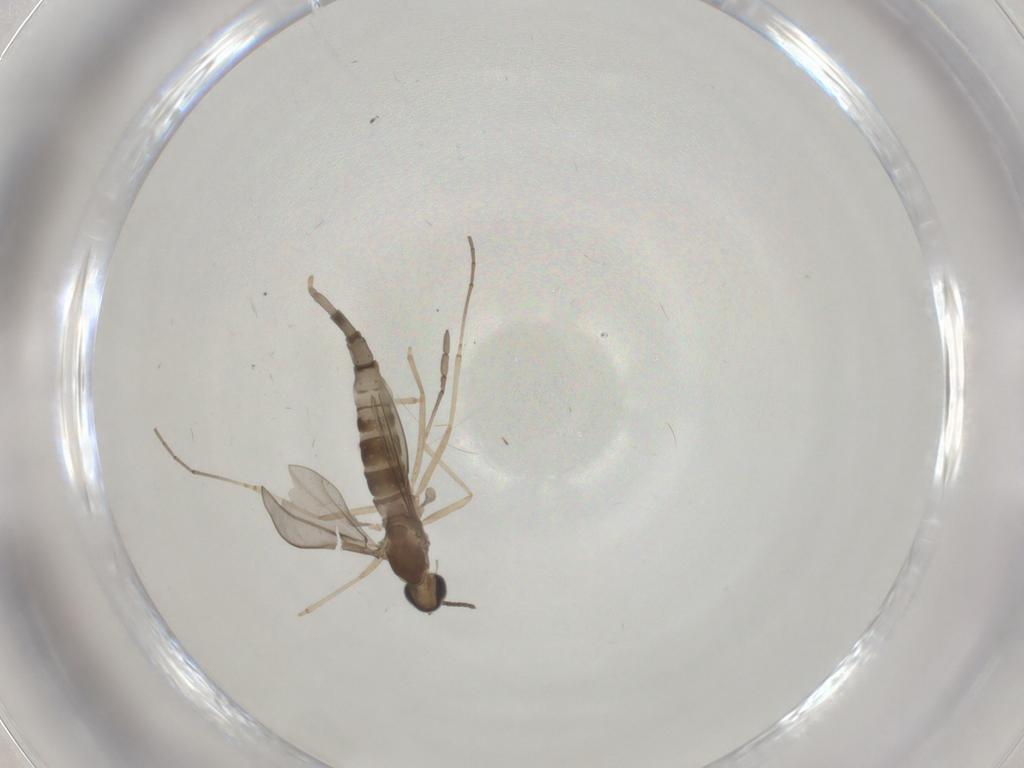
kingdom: Animalia
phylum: Arthropoda
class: Insecta
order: Diptera
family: Cecidomyiidae
